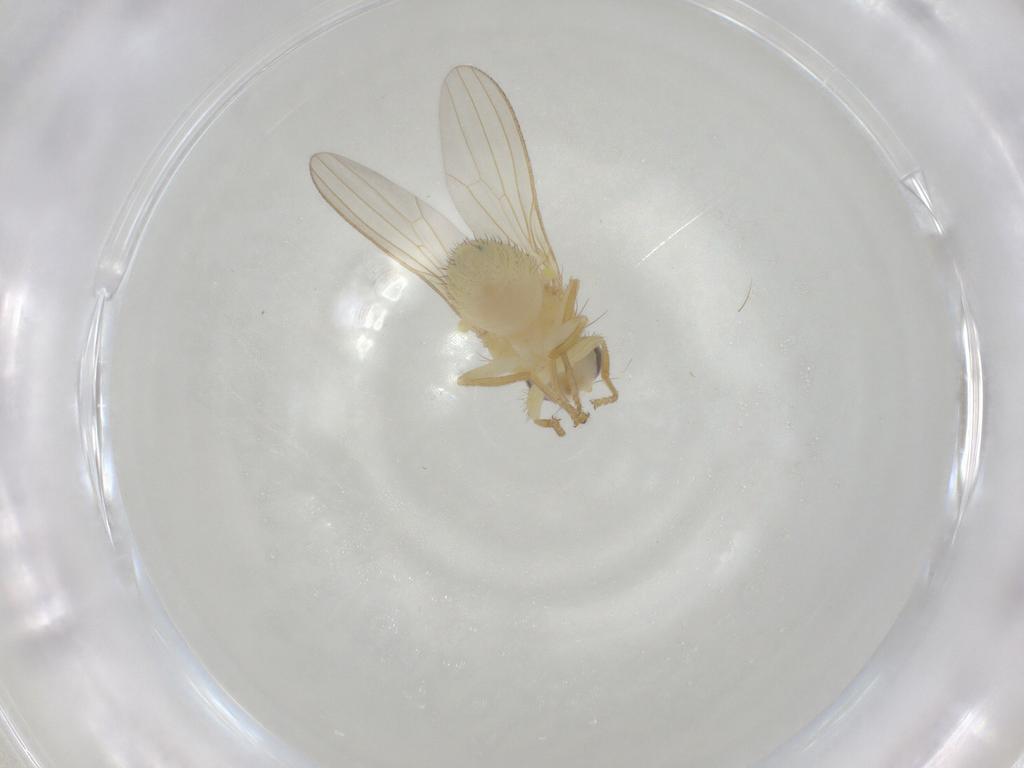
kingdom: Animalia
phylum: Arthropoda
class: Insecta
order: Diptera
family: Chyromyidae
